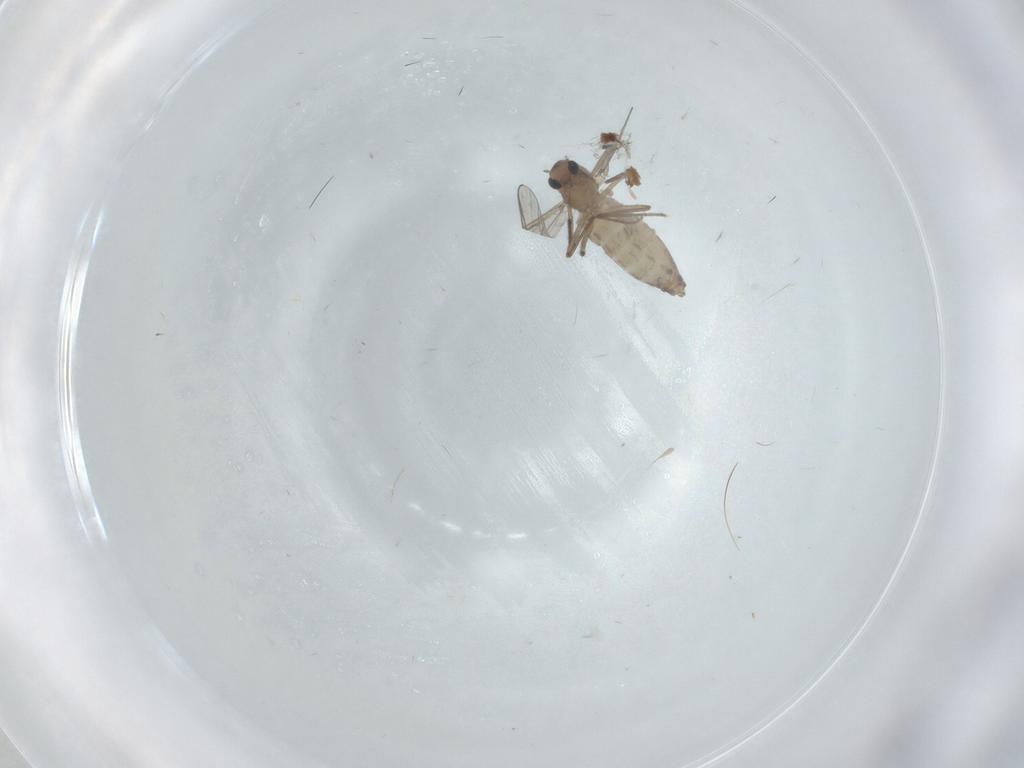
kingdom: Animalia
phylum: Arthropoda
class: Insecta
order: Diptera
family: Chironomidae
